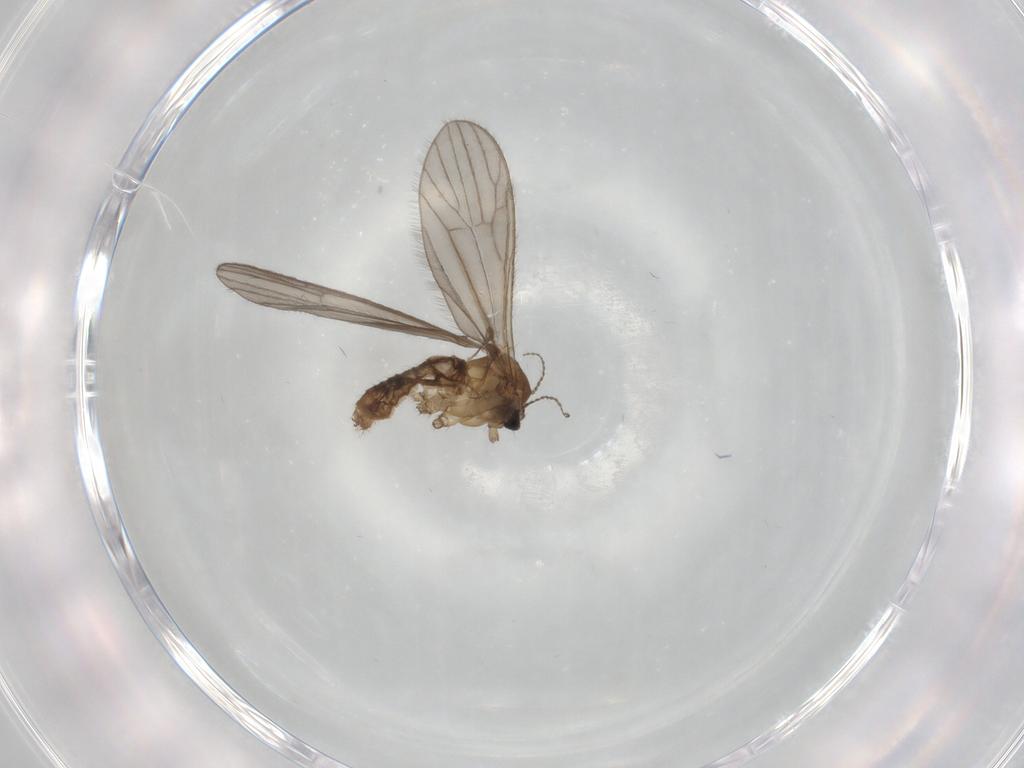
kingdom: Animalia
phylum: Arthropoda
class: Insecta
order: Diptera
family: Limoniidae
